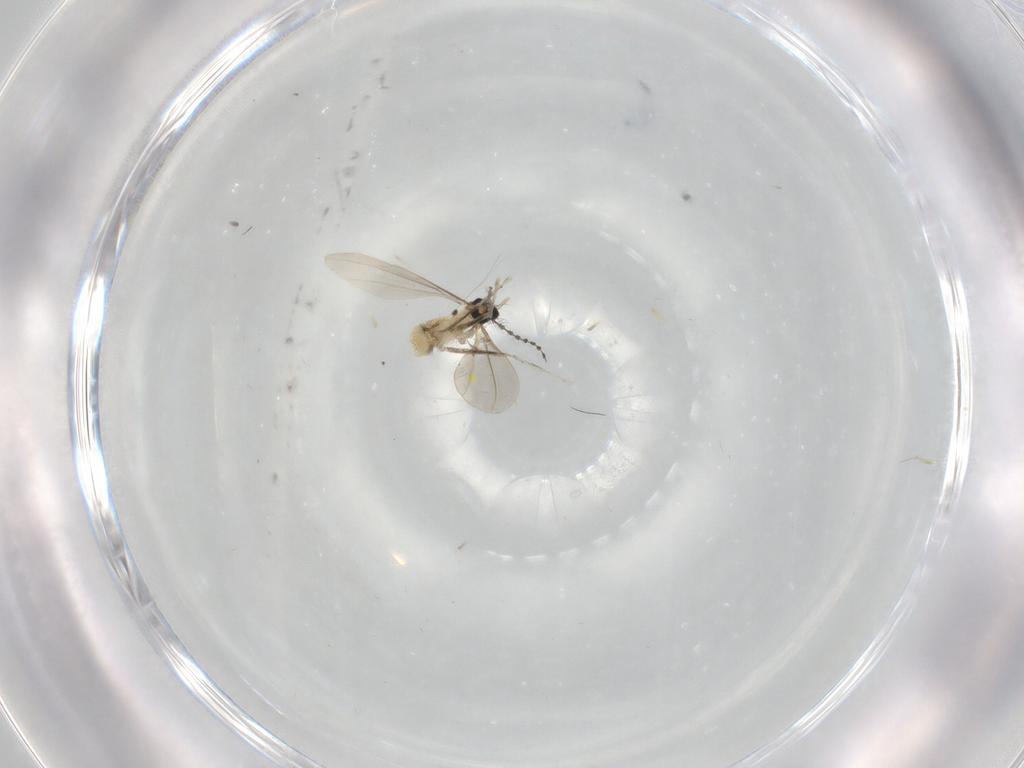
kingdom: Animalia
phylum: Arthropoda
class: Insecta
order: Diptera
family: Cecidomyiidae
